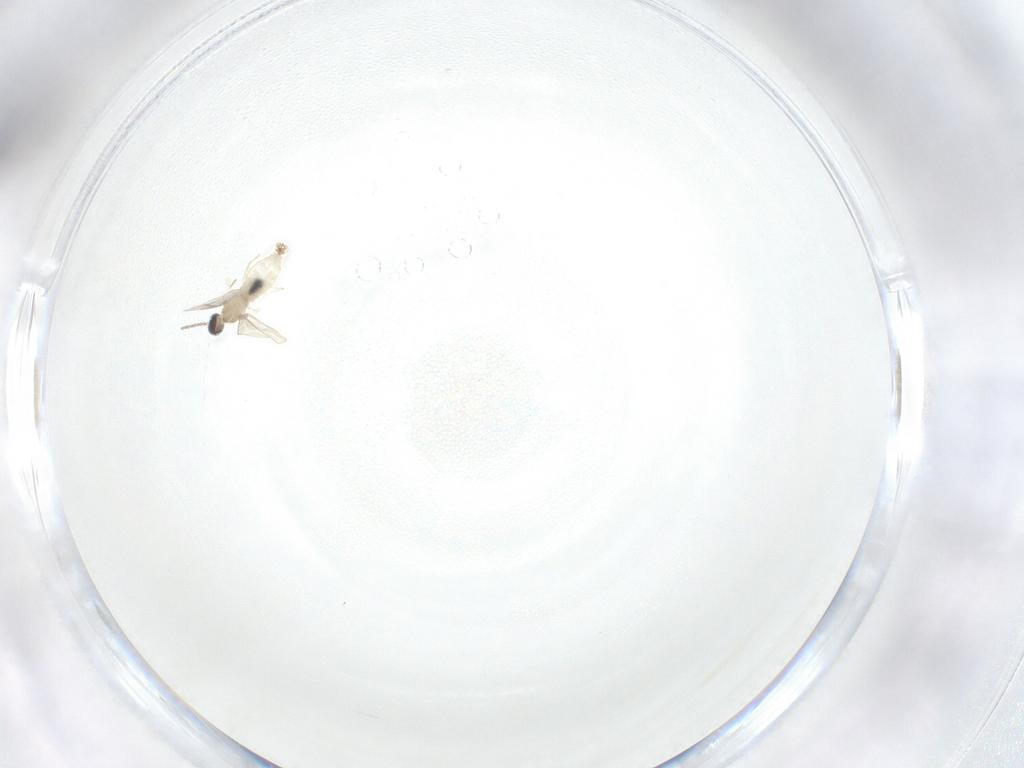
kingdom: Animalia
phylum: Arthropoda
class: Insecta
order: Diptera
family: Cecidomyiidae
